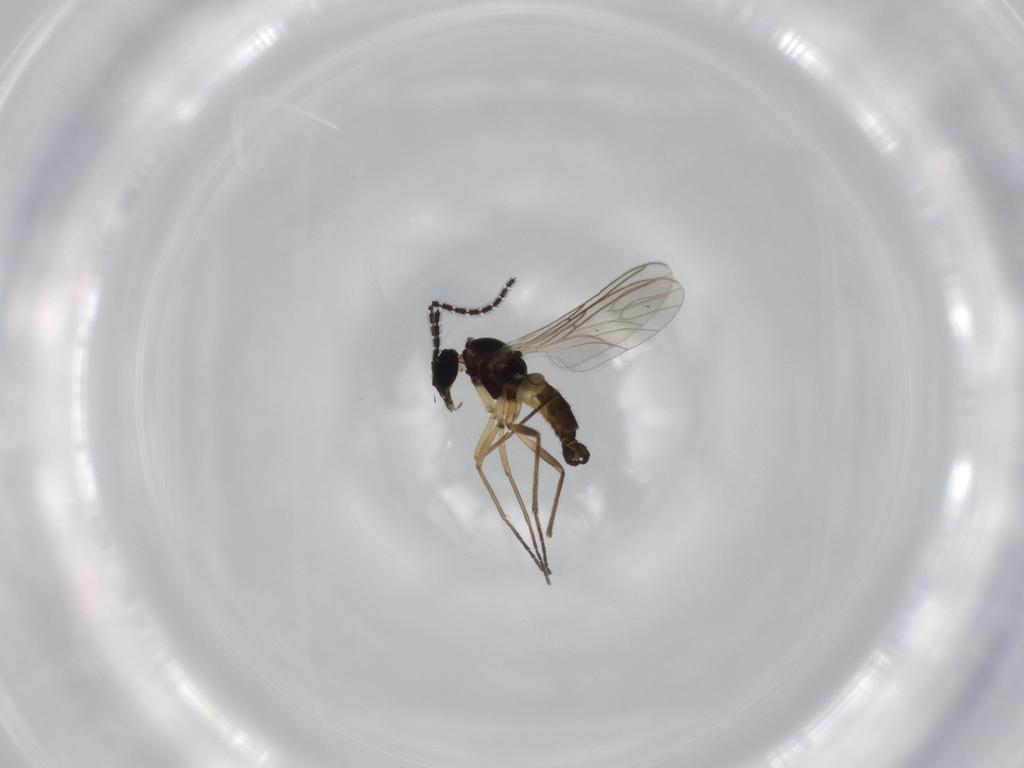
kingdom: Animalia
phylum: Arthropoda
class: Insecta
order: Diptera
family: Sciaridae
